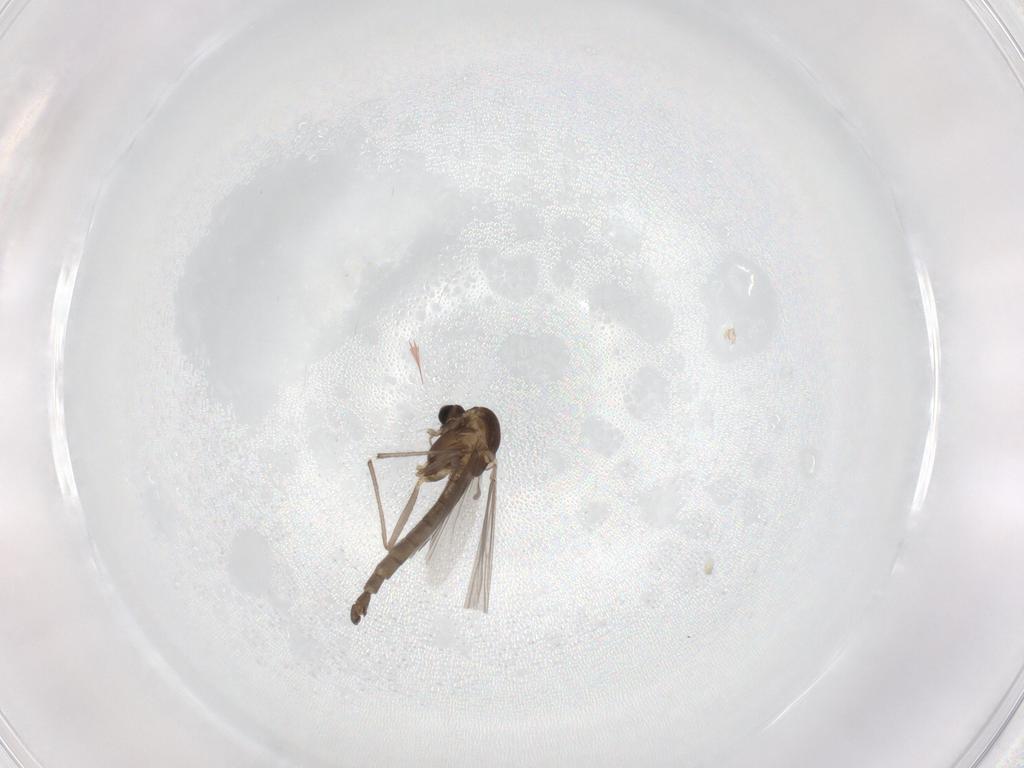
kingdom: Animalia
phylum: Arthropoda
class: Insecta
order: Diptera
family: Chironomidae
